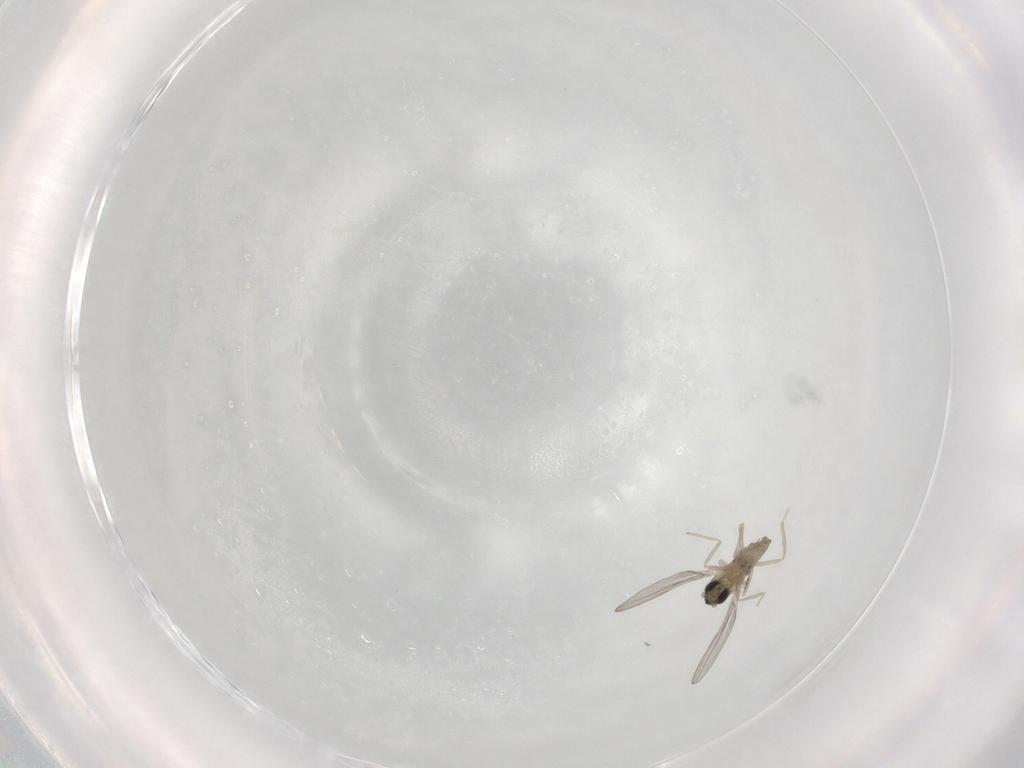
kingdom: Animalia
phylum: Arthropoda
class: Insecta
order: Diptera
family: Cecidomyiidae
